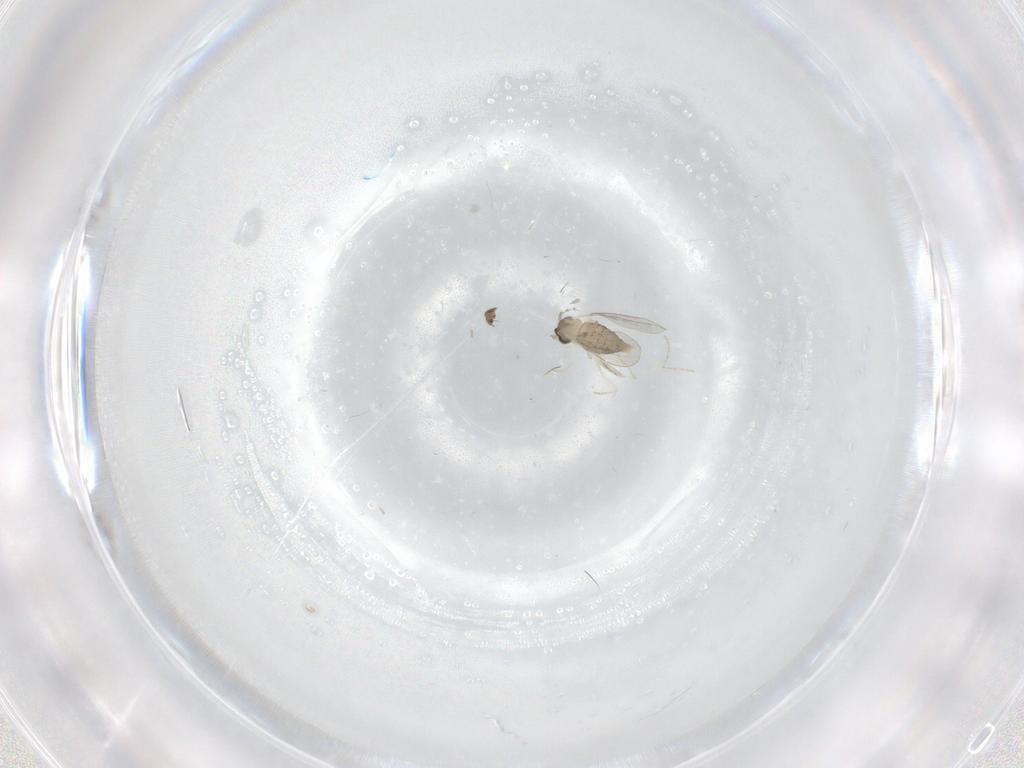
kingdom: Animalia
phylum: Arthropoda
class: Insecta
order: Diptera
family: Cecidomyiidae
